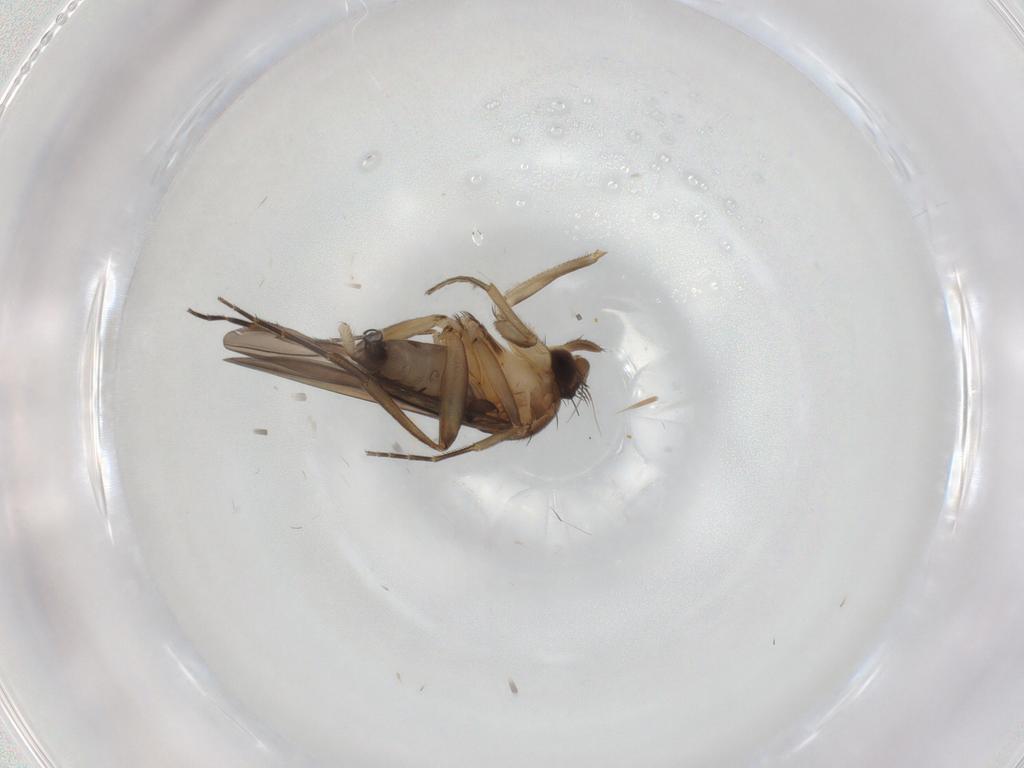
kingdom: Animalia
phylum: Arthropoda
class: Insecta
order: Diptera
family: Phoridae
